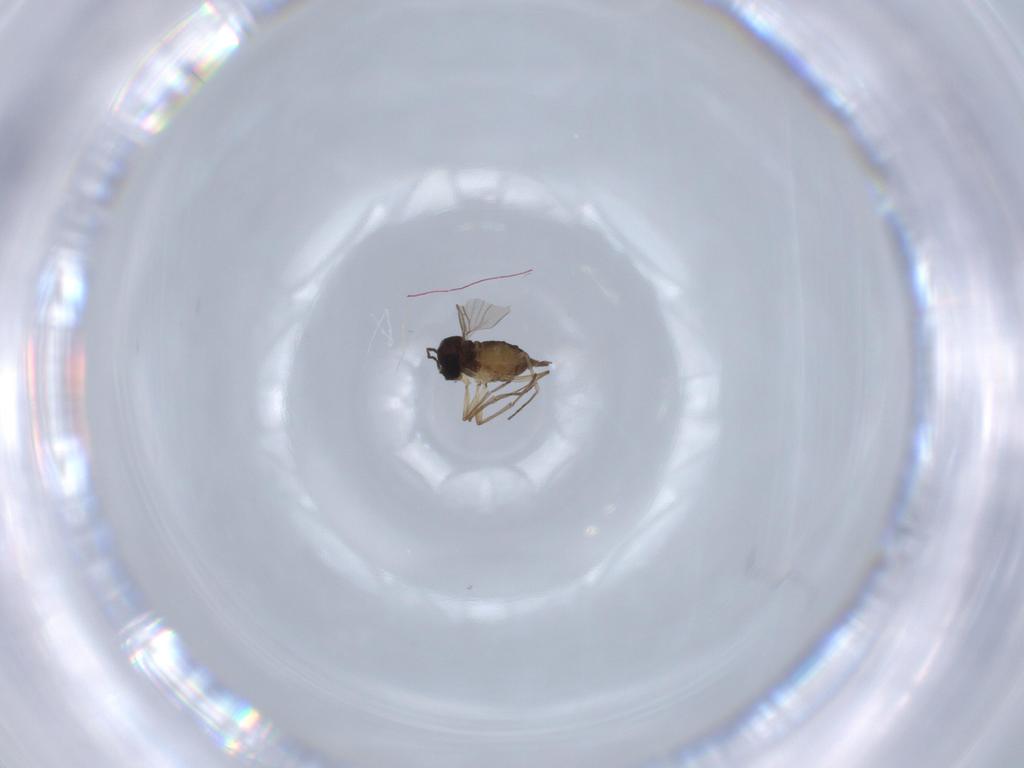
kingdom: Animalia
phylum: Arthropoda
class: Insecta
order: Diptera
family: Sciaridae
